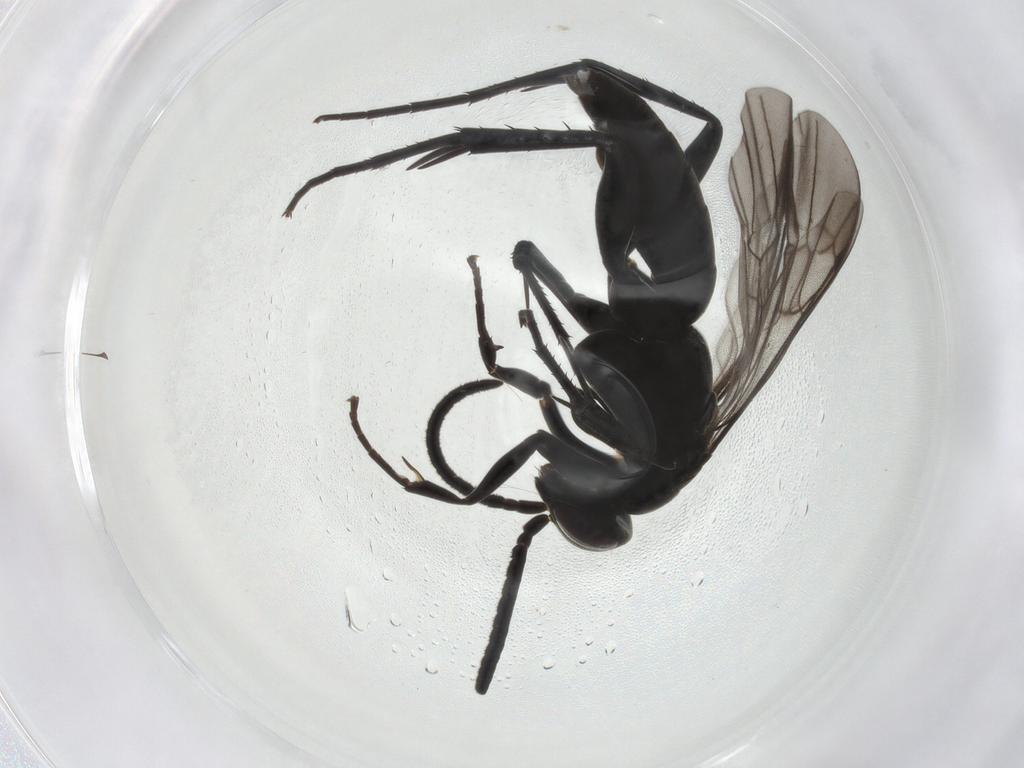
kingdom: Animalia
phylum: Arthropoda
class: Insecta
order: Hymenoptera
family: Pompilidae
